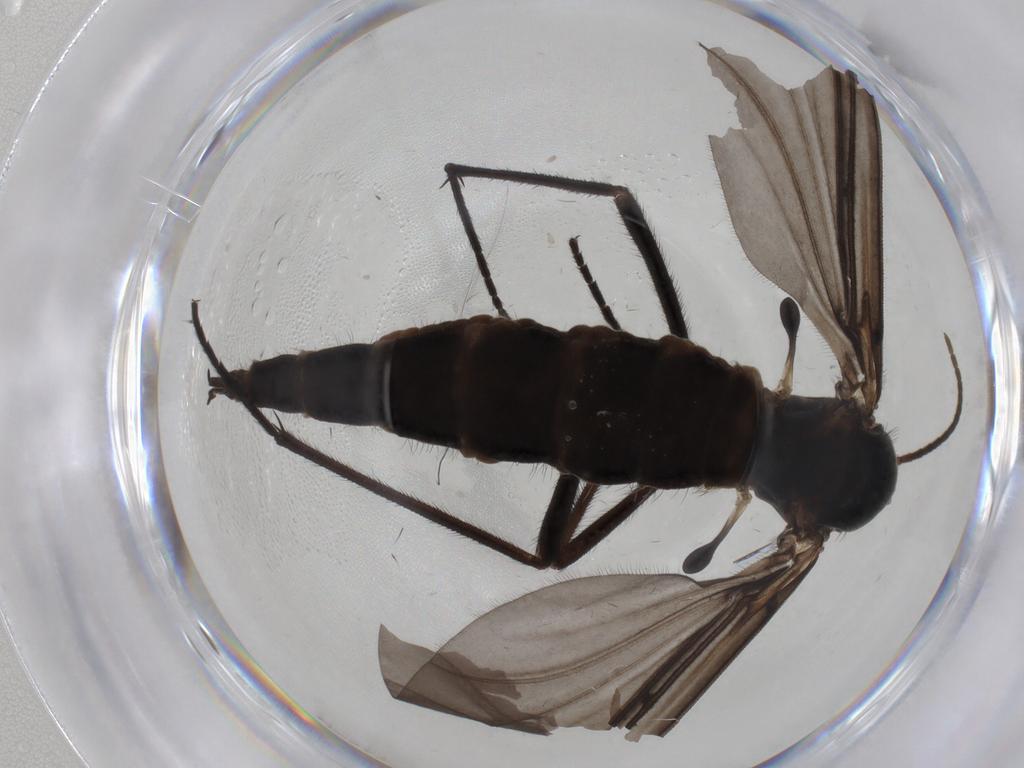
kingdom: Animalia
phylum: Arthropoda
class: Insecta
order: Diptera
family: Sciaridae
